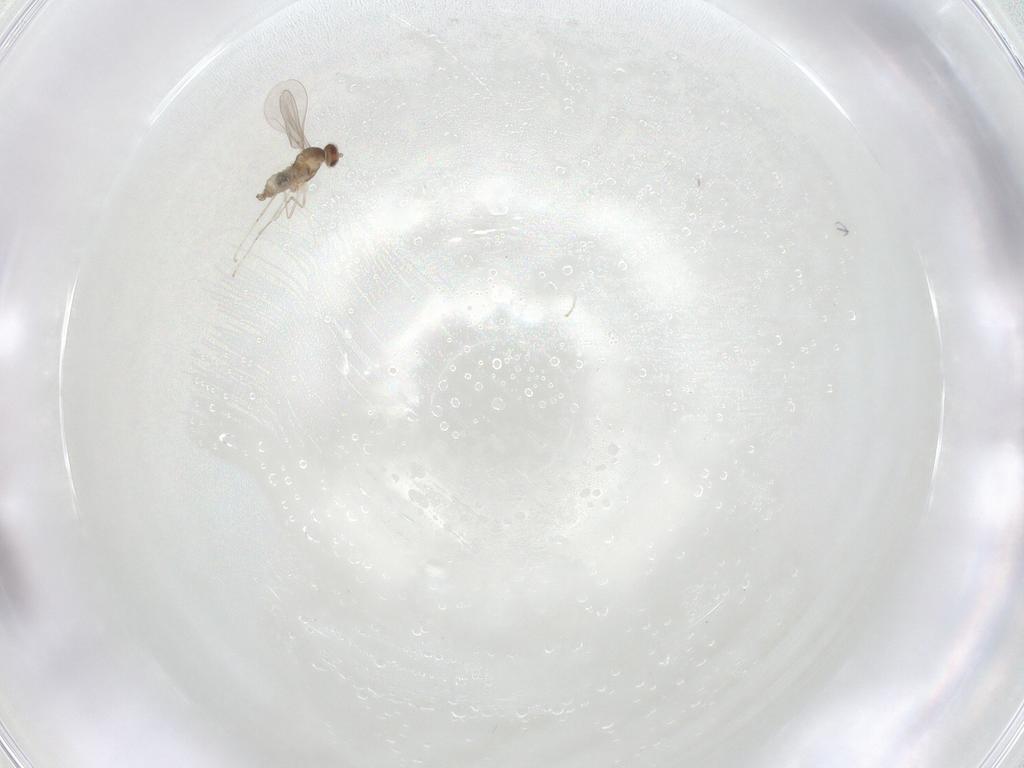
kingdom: Animalia
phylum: Arthropoda
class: Insecta
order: Diptera
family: Cecidomyiidae
